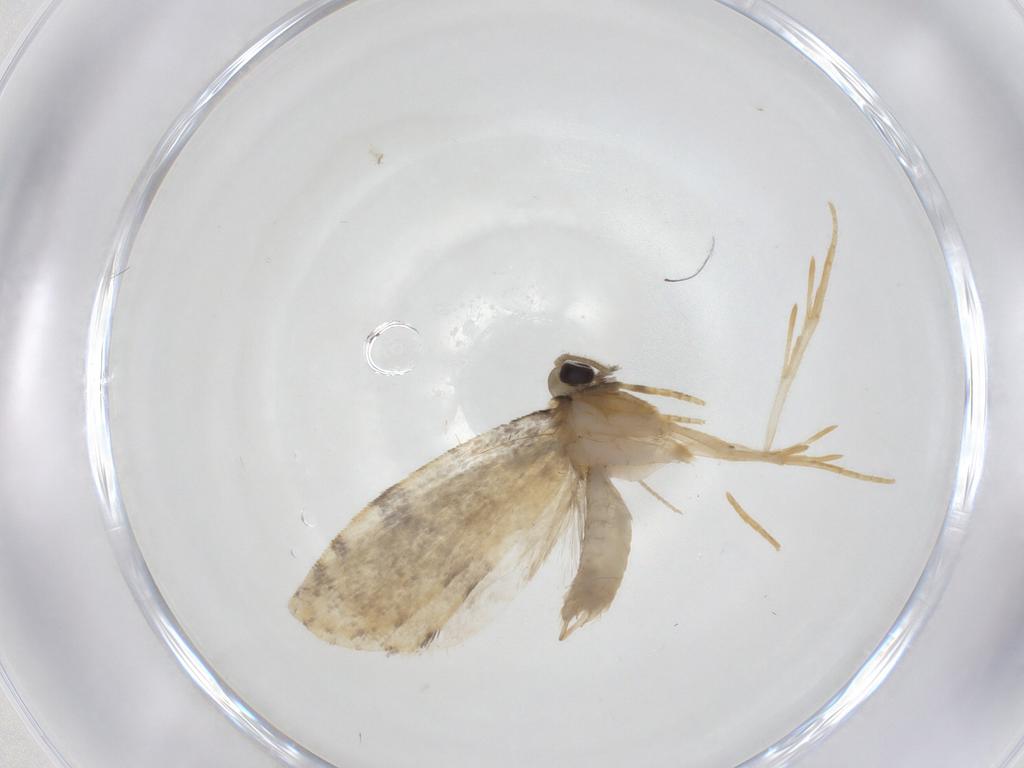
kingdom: Animalia
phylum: Arthropoda
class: Insecta
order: Lepidoptera
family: Psychidae
